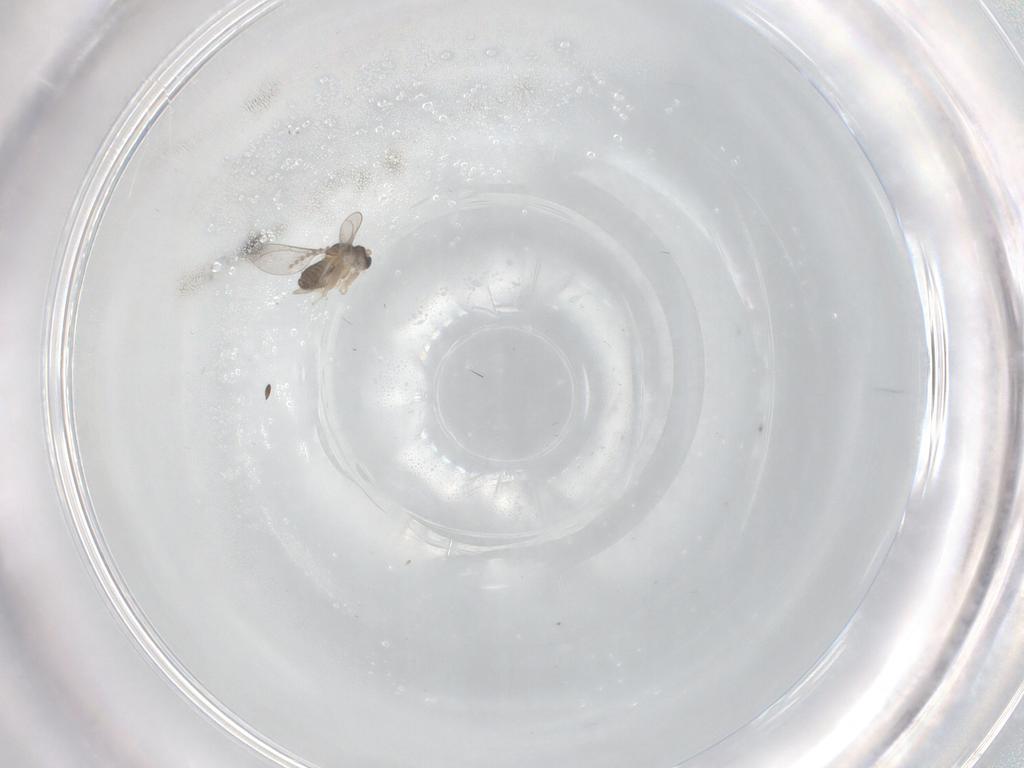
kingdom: Animalia
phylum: Arthropoda
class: Insecta
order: Diptera
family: Cecidomyiidae
